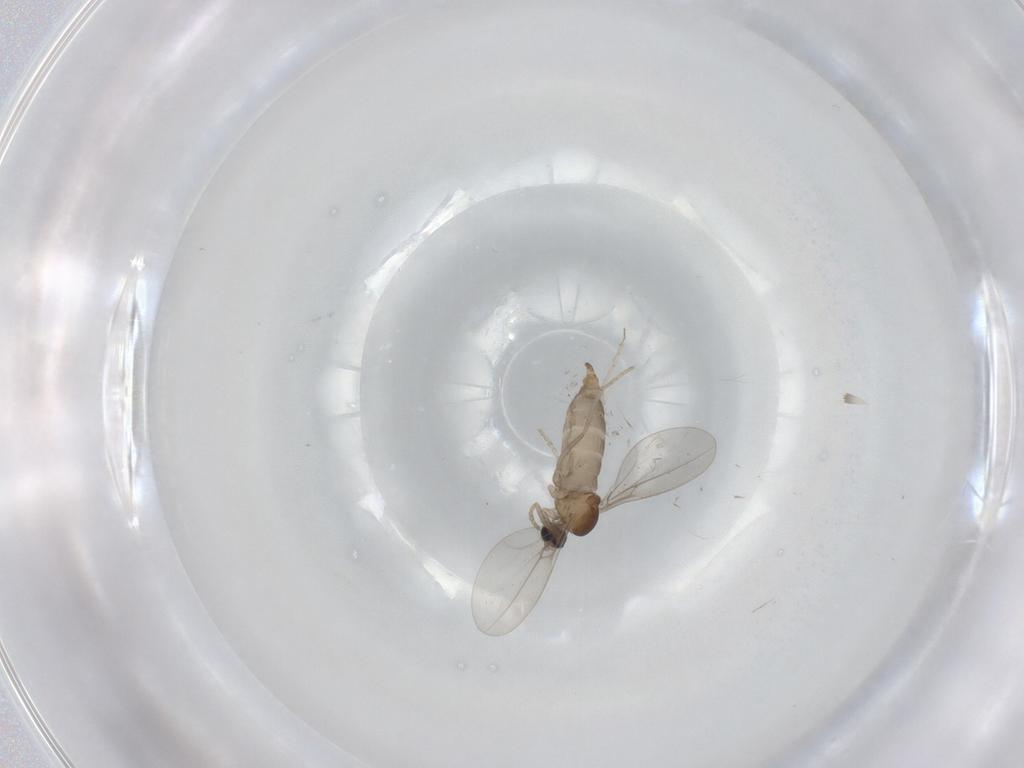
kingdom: Animalia
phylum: Arthropoda
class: Insecta
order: Diptera
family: Cecidomyiidae
